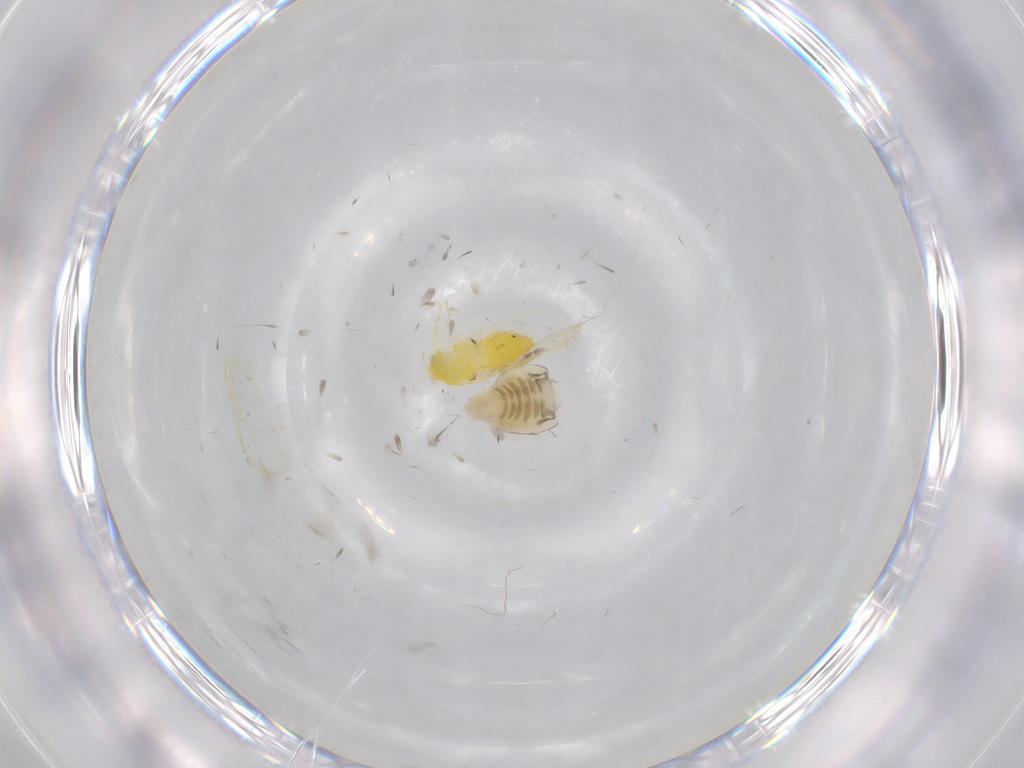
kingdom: Animalia
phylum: Arthropoda
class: Insecta
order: Hemiptera
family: Aleyrodidae
